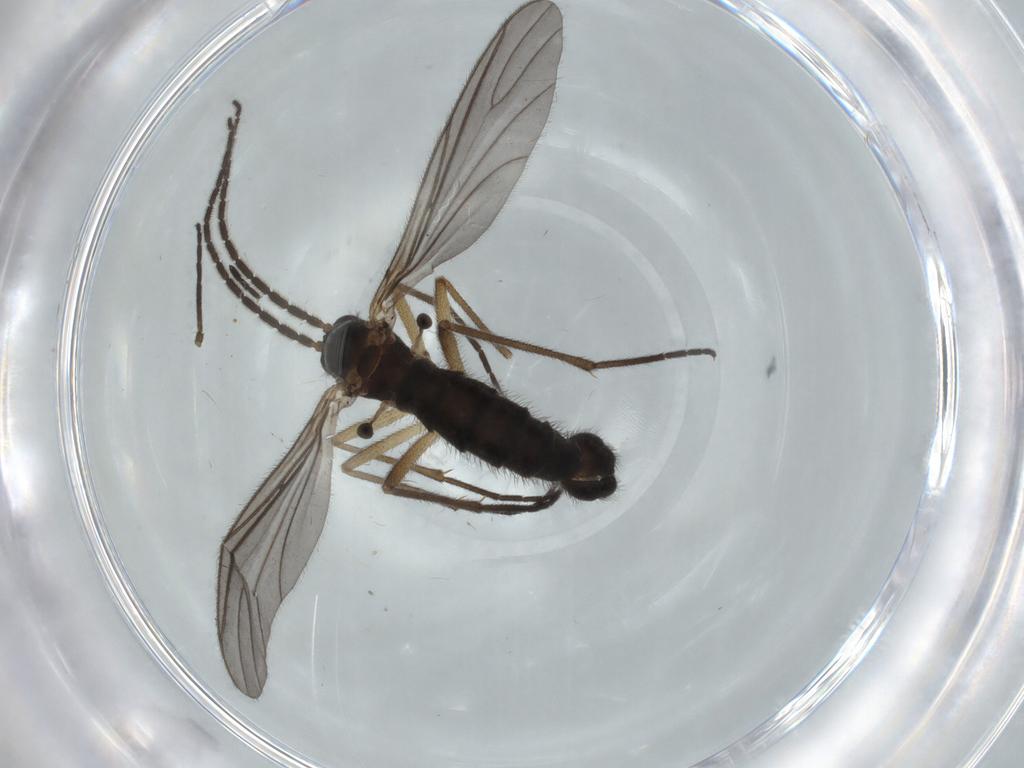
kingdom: Animalia
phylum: Arthropoda
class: Insecta
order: Diptera
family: Sciaridae
